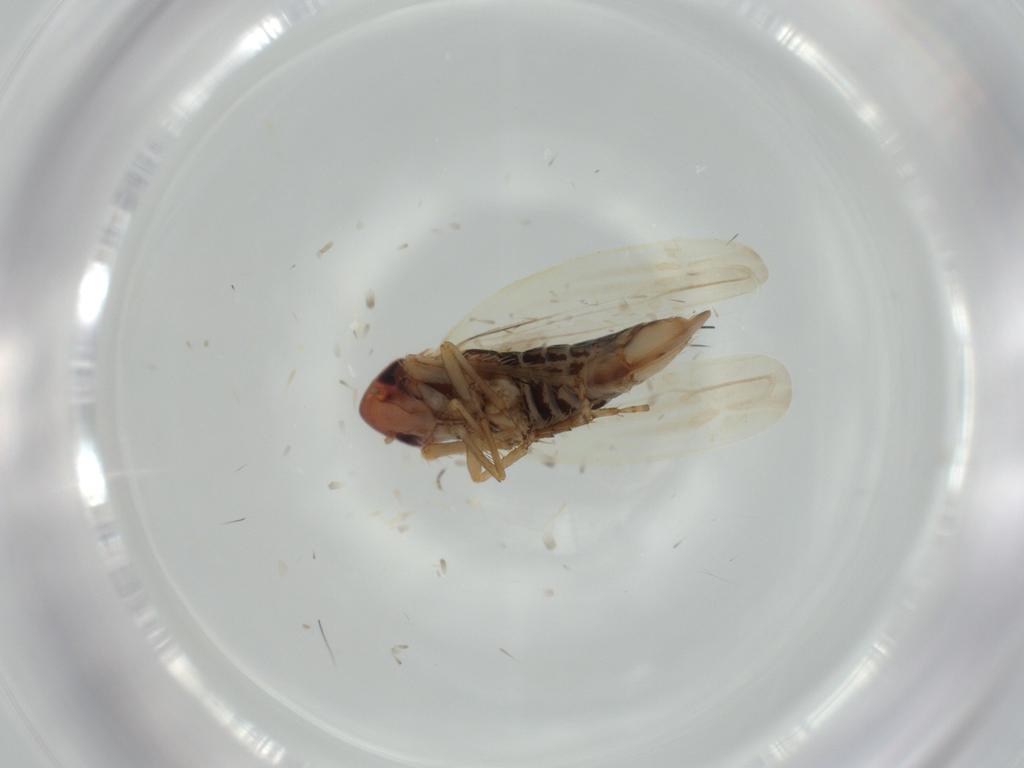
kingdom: Animalia
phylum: Arthropoda
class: Insecta
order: Hemiptera
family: Cicadellidae
